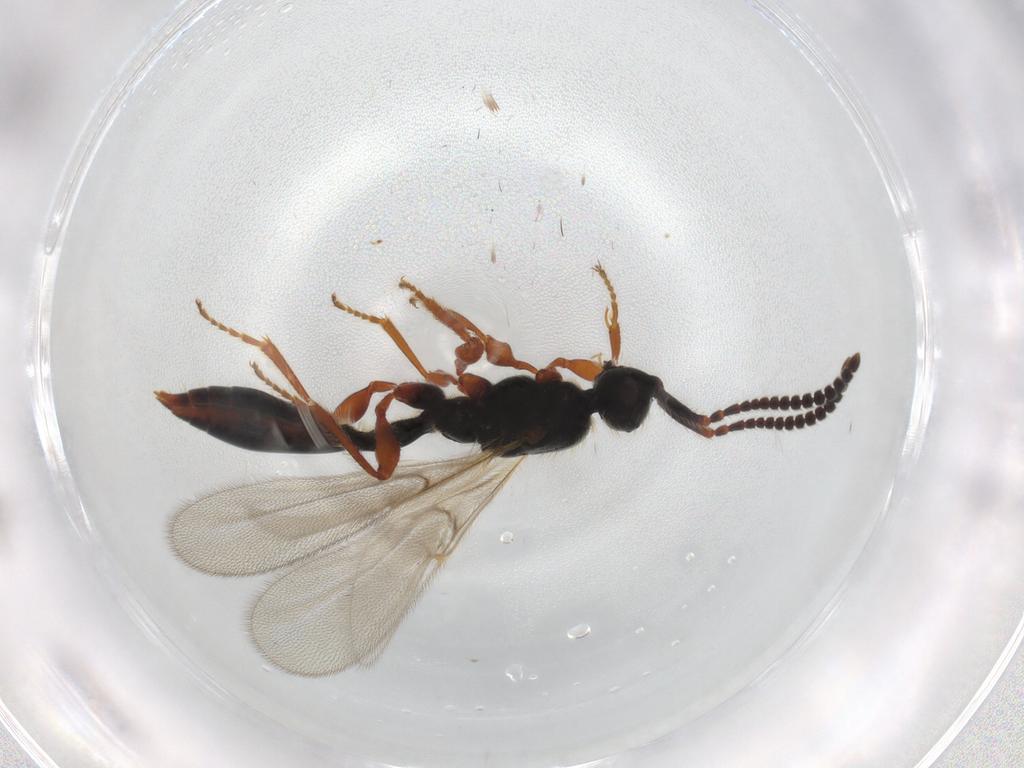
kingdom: Animalia
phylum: Arthropoda
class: Insecta
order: Hymenoptera
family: Diapriidae
